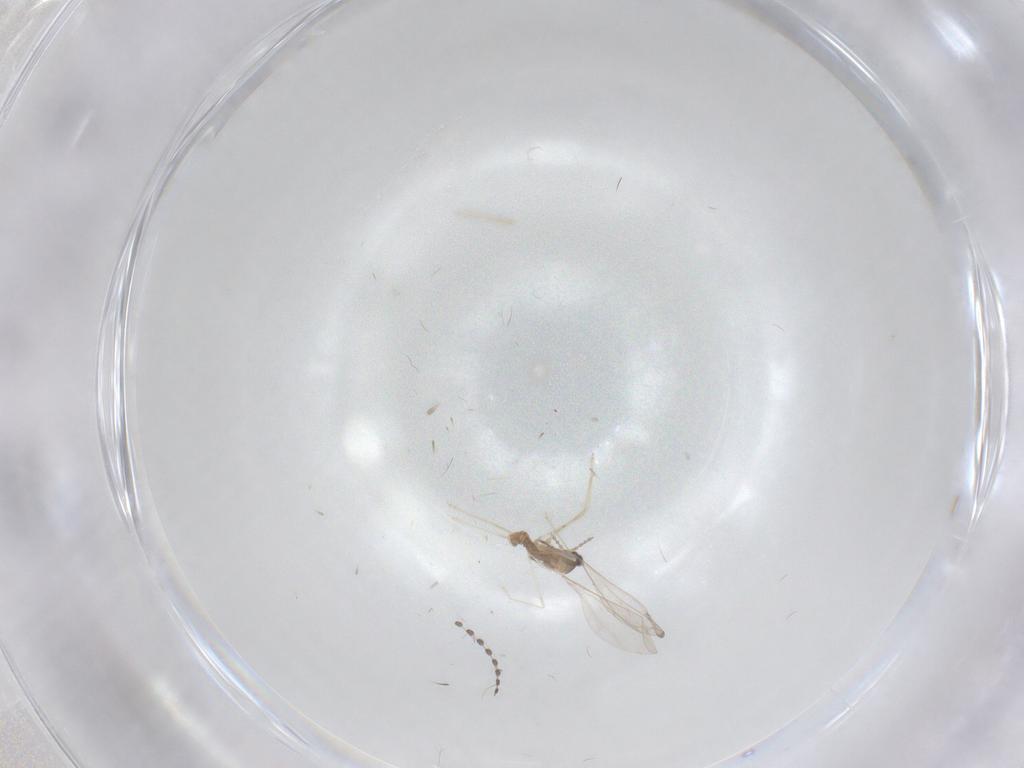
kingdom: Animalia
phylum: Arthropoda
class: Insecta
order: Diptera
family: Cecidomyiidae
